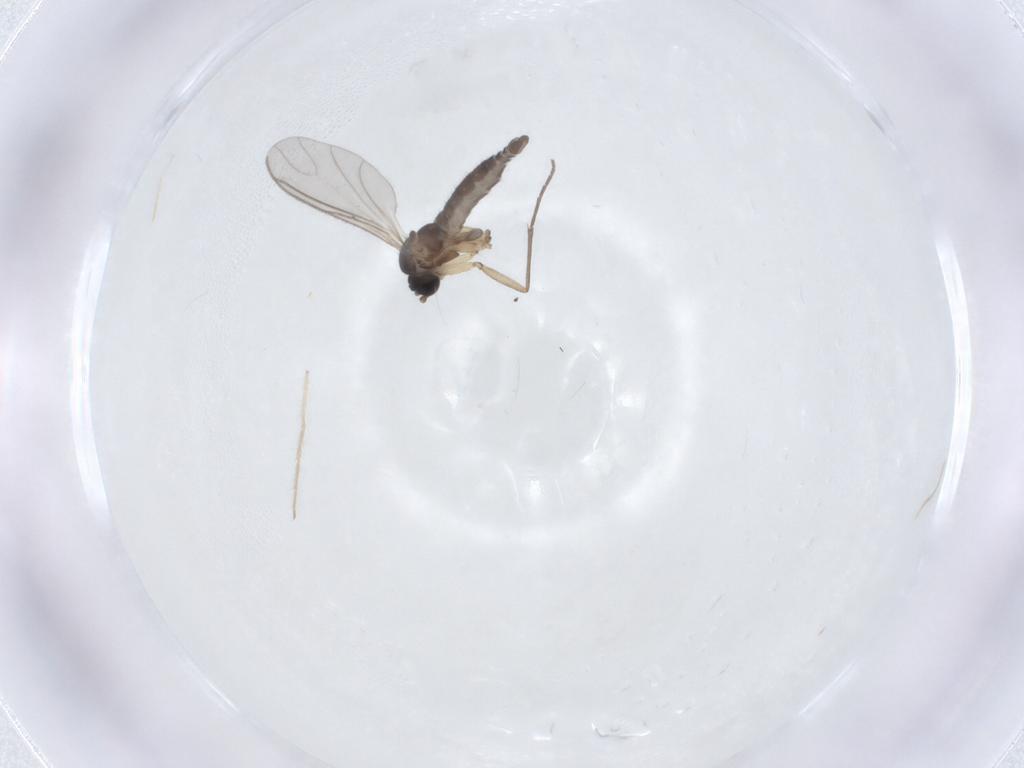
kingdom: Animalia
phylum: Arthropoda
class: Insecta
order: Diptera
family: Sciaridae
